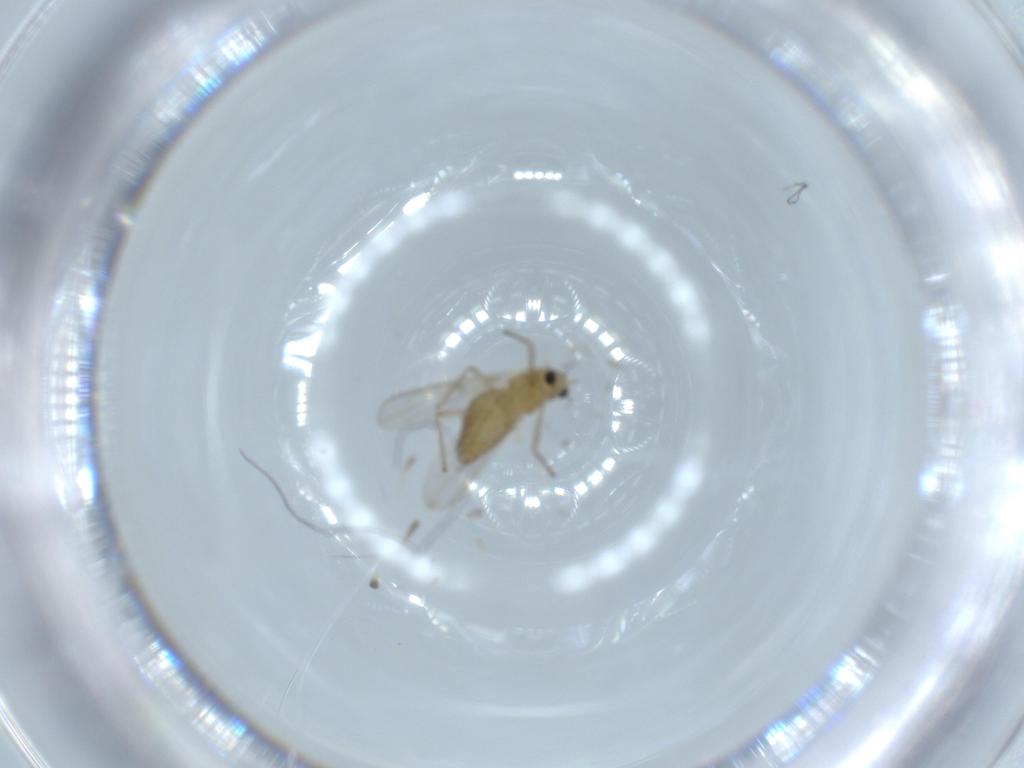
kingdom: Animalia
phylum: Arthropoda
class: Insecta
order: Diptera
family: Chironomidae
